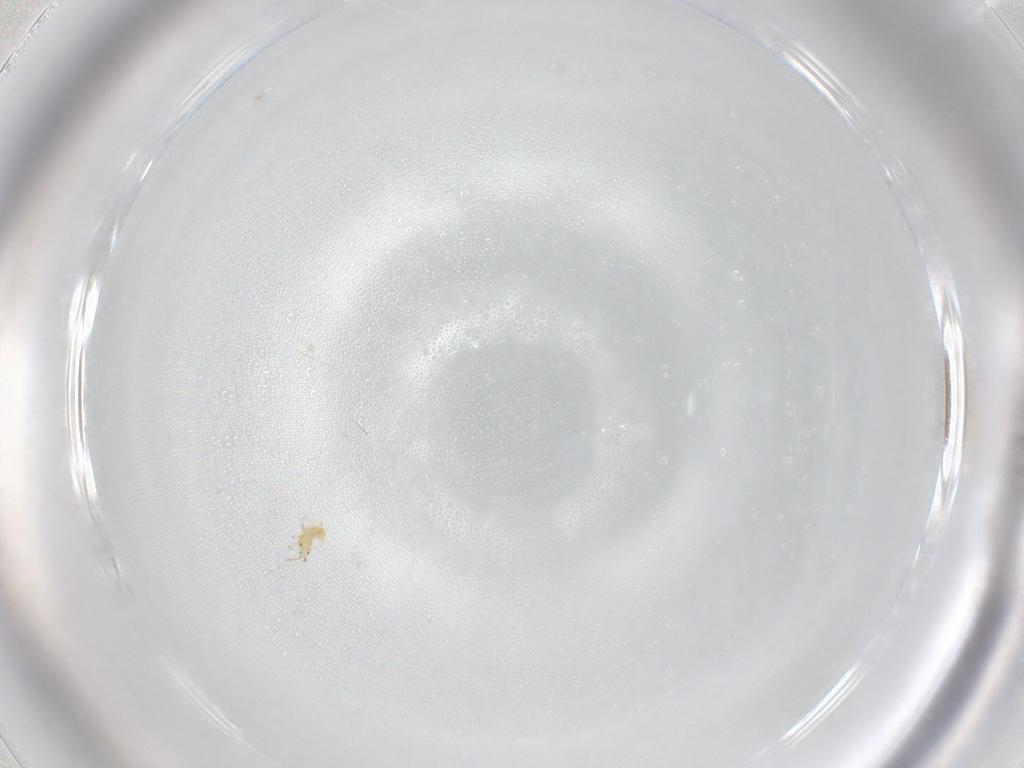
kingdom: Animalia
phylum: Arthropoda
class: Insecta
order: Thysanoptera
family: Thripidae
